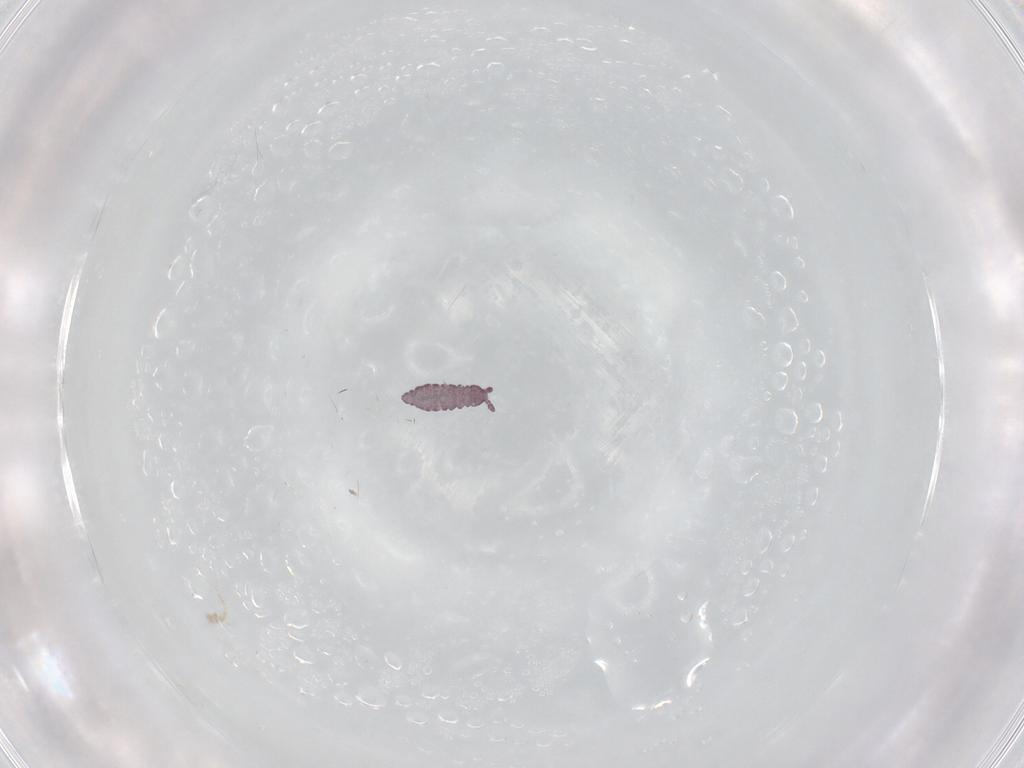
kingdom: Animalia
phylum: Arthropoda
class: Collembola
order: Poduromorpha
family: Hypogastruridae
